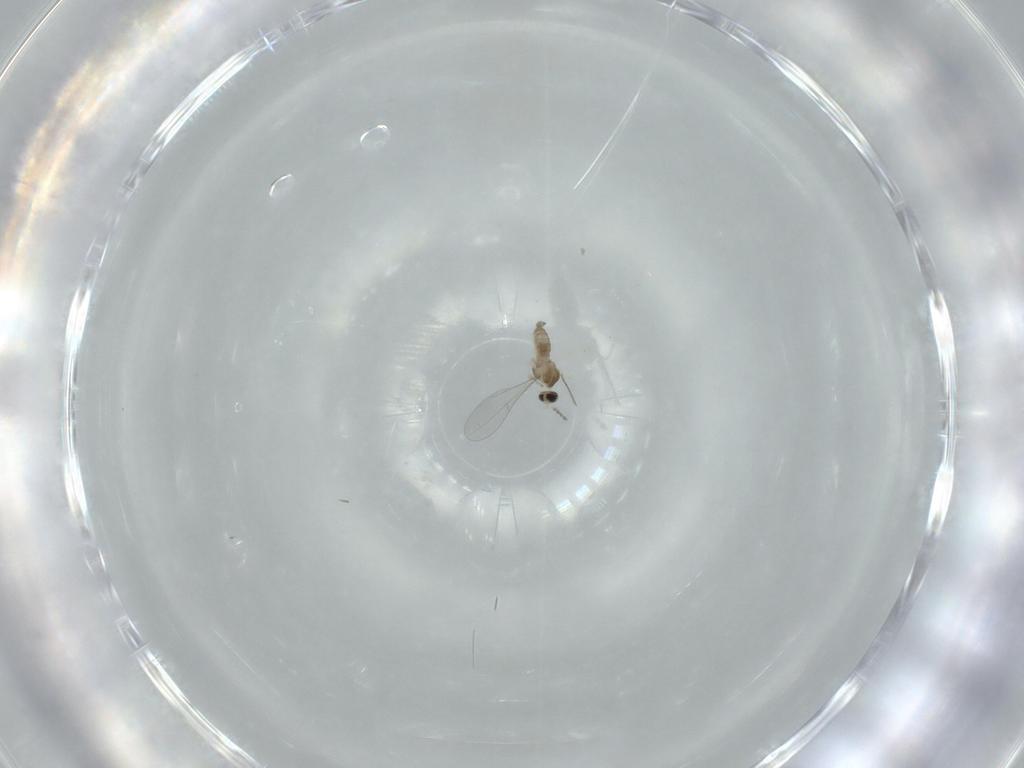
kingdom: Animalia
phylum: Arthropoda
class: Insecta
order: Diptera
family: Cecidomyiidae
